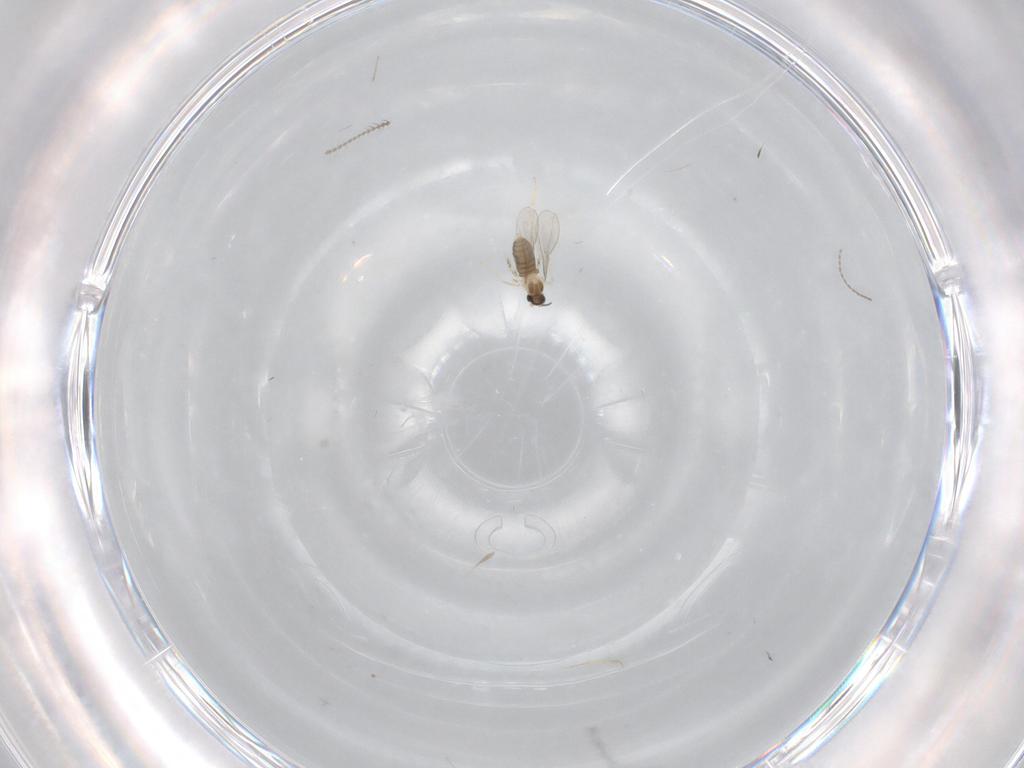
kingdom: Animalia
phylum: Arthropoda
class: Insecta
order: Diptera
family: Cecidomyiidae
